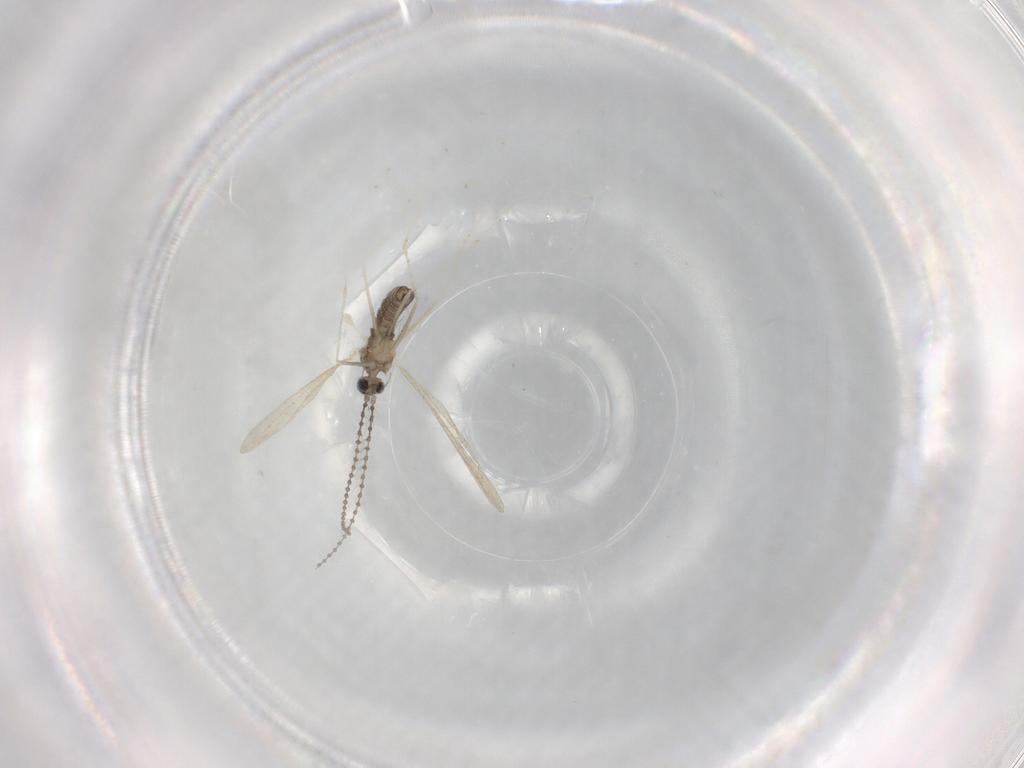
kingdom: Animalia
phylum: Arthropoda
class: Insecta
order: Diptera
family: Cecidomyiidae
